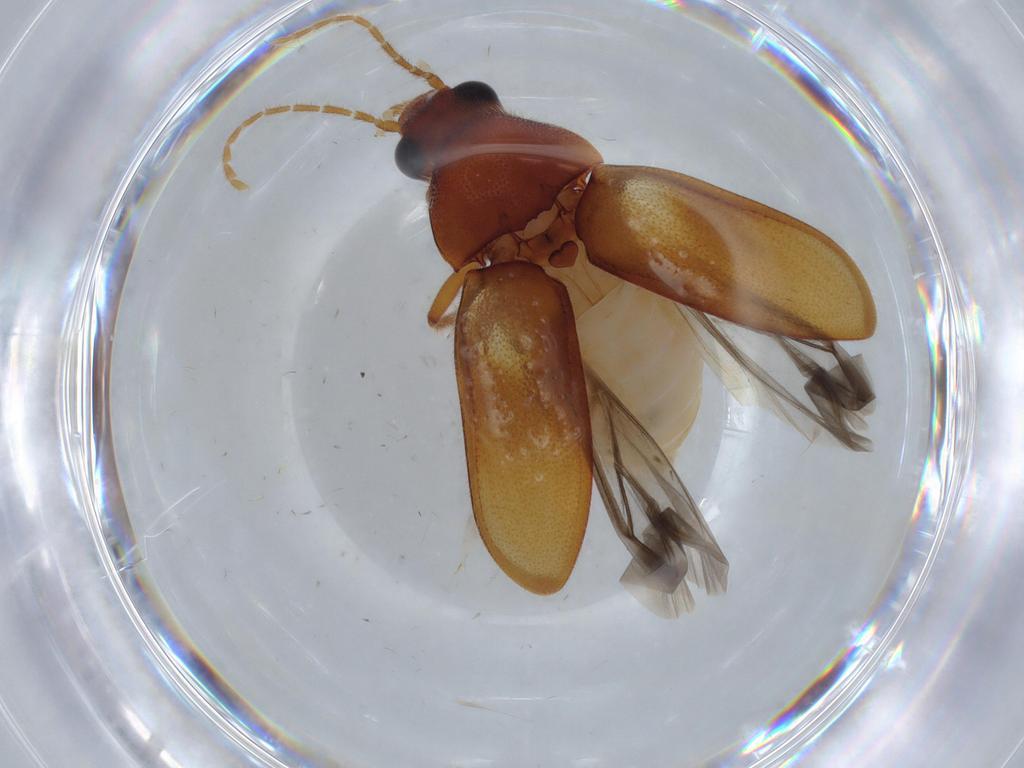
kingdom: Animalia
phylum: Arthropoda
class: Insecta
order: Coleoptera
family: Ptilodactylidae
